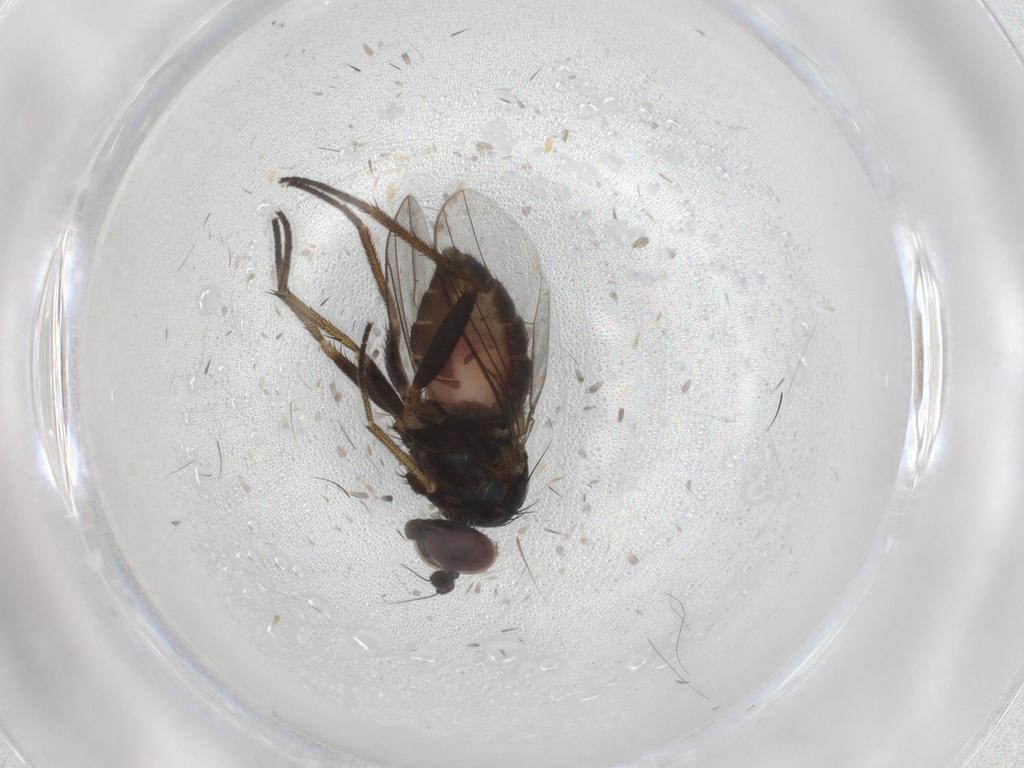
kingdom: Animalia
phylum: Arthropoda
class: Insecta
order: Diptera
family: Dolichopodidae
